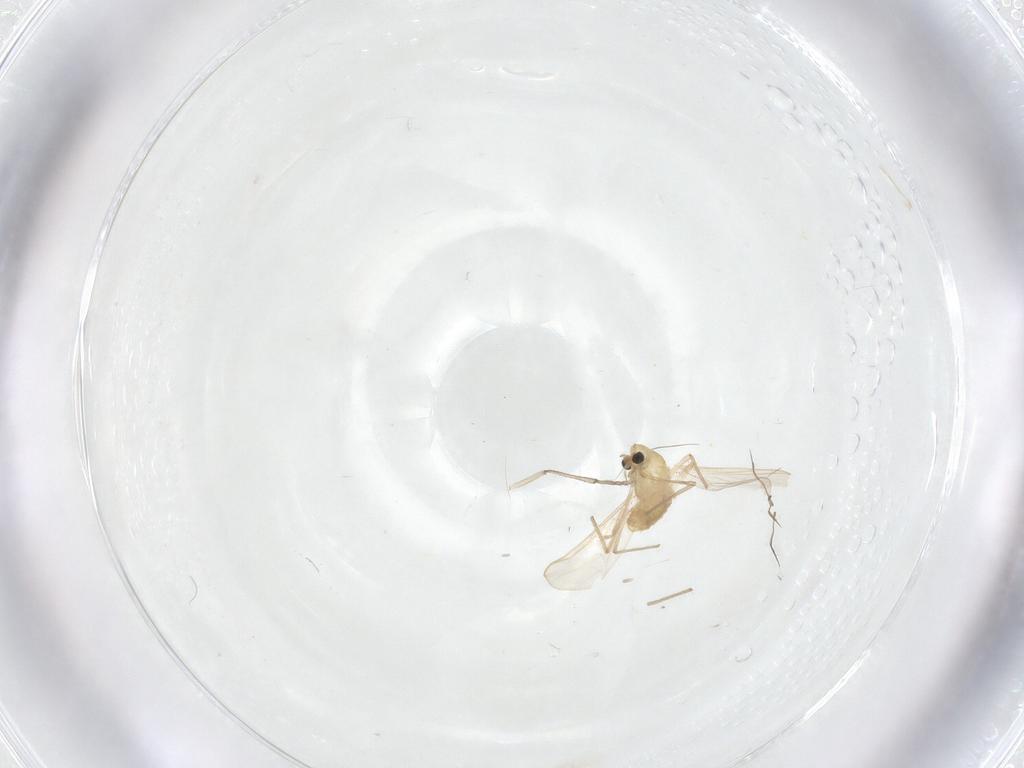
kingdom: Animalia
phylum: Arthropoda
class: Insecta
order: Diptera
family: Psychodidae
